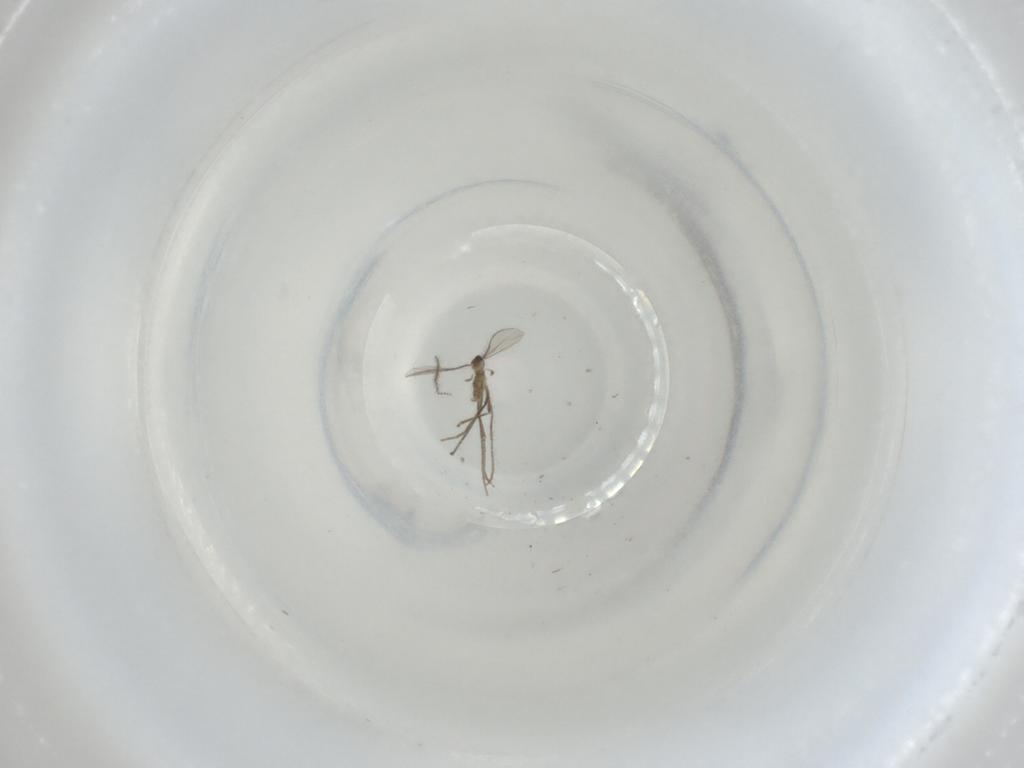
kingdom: Animalia
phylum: Arthropoda
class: Insecta
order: Diptera
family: Cecidomyiidae
